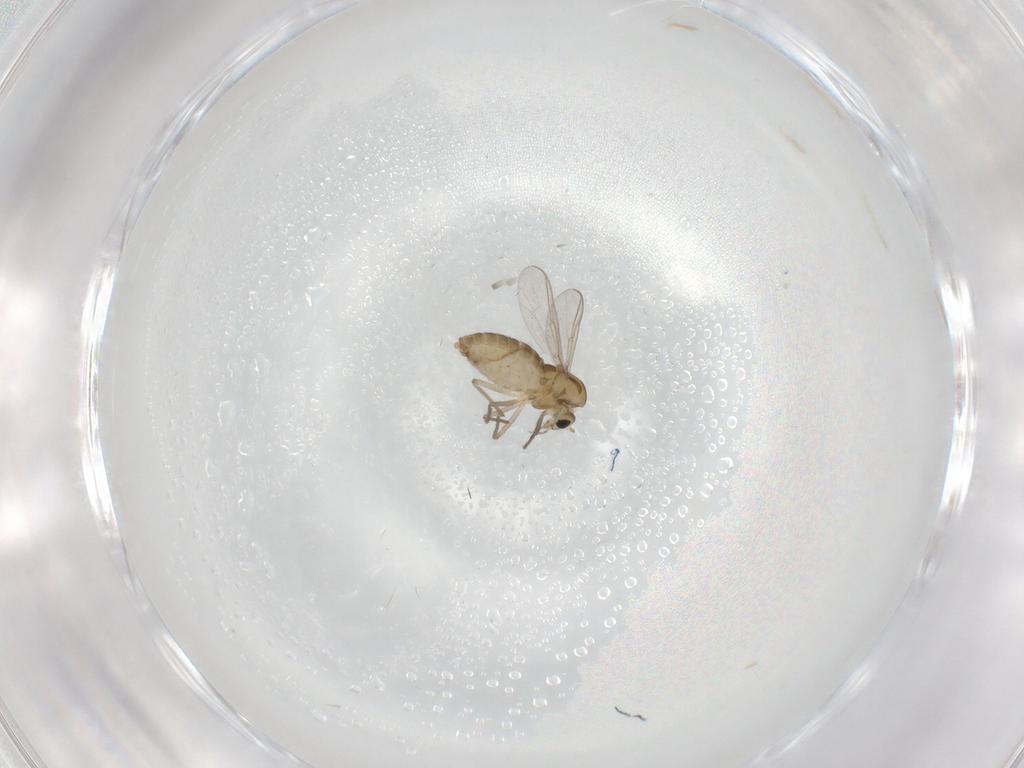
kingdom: Animalia
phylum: Arthropoda
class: Insecta
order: Diptera
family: Chironomidae
